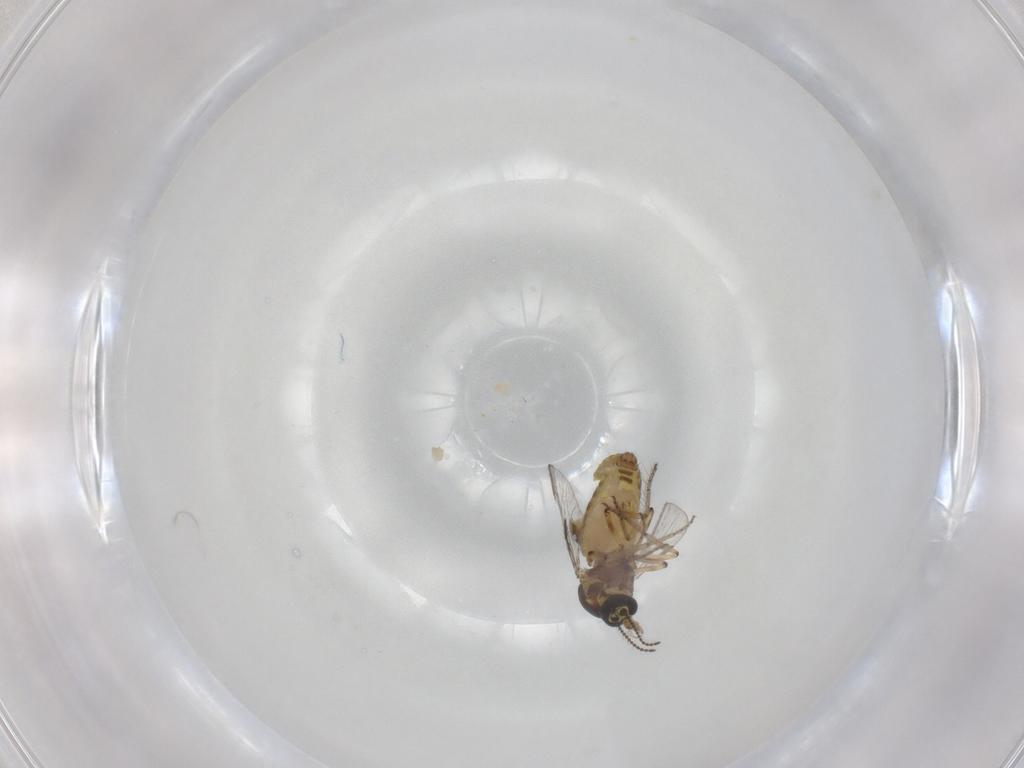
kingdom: Animalia
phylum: Arthropoda
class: Insecta
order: Diptera
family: Ceratopogonidae
